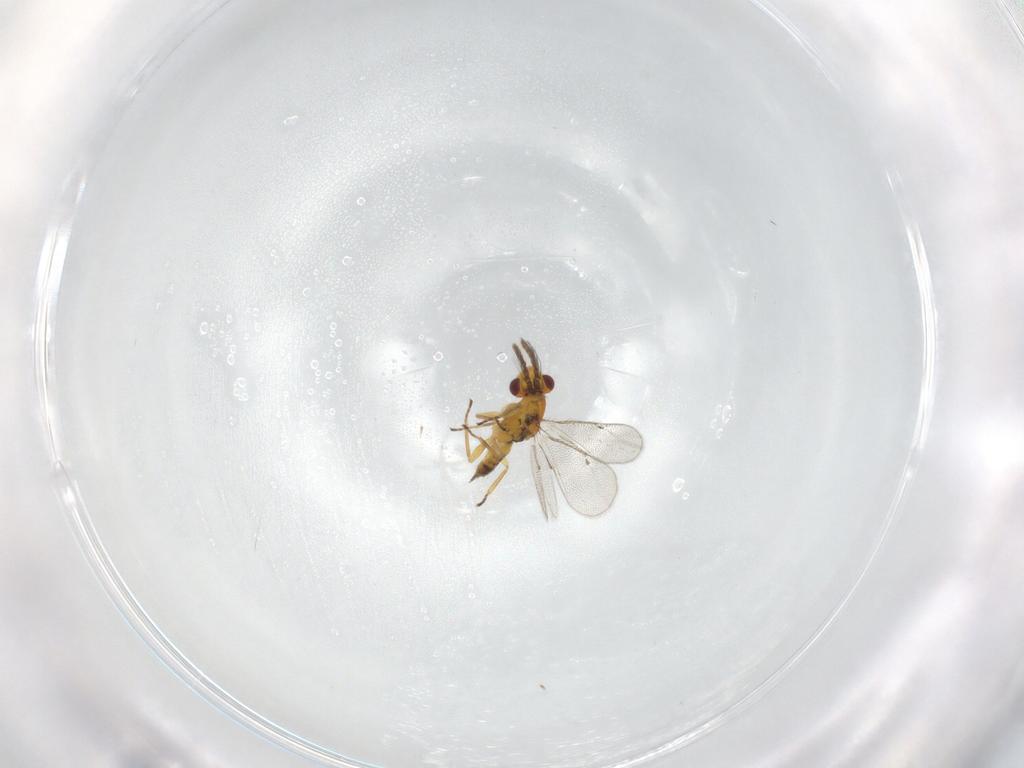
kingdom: Animalia
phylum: Arthropoda
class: Insecta
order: Hymenoptera
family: Eulophidae
